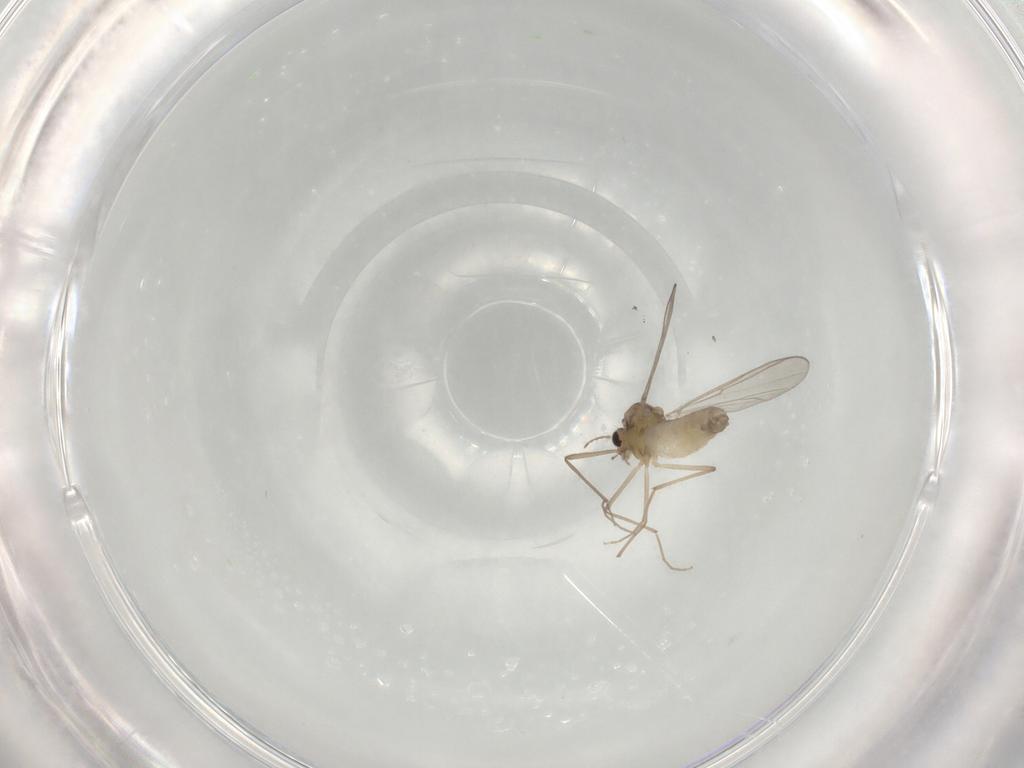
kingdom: Animalia
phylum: Arthropoda
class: Insecta
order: Diptera
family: Chironomidae
